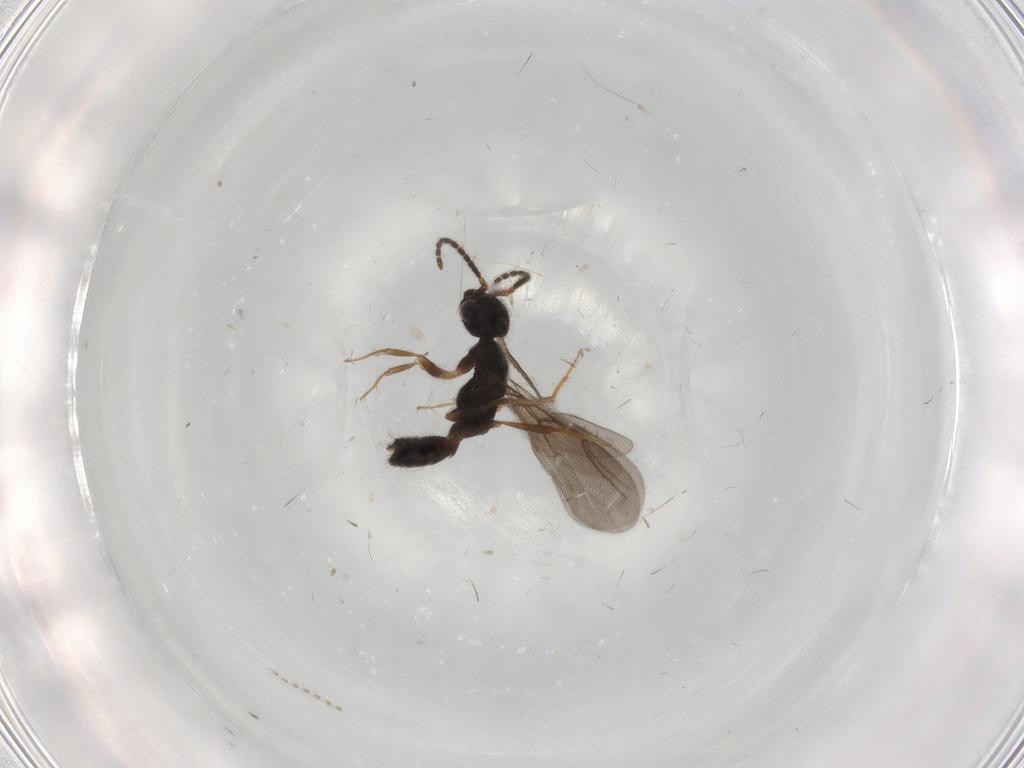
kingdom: Animalia
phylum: Arthropoda
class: Insecta
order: Hymenoptera
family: Bethylidae
